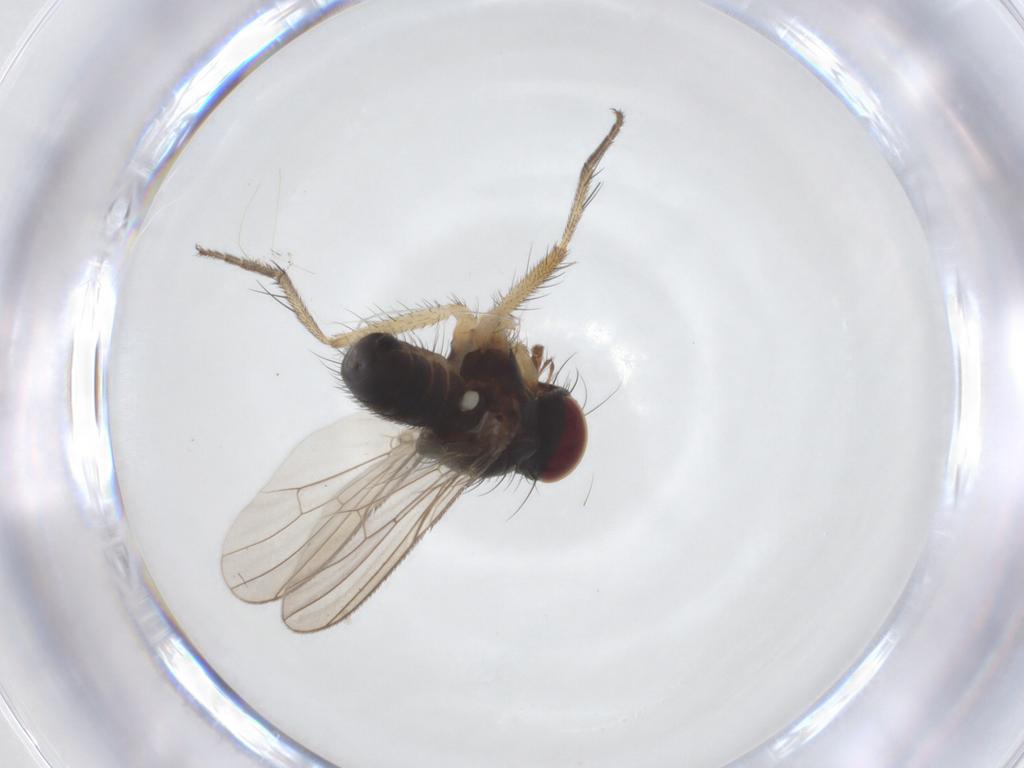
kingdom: Animalia
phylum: Arthropoda
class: Insecta
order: Diptera
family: Muscidae
